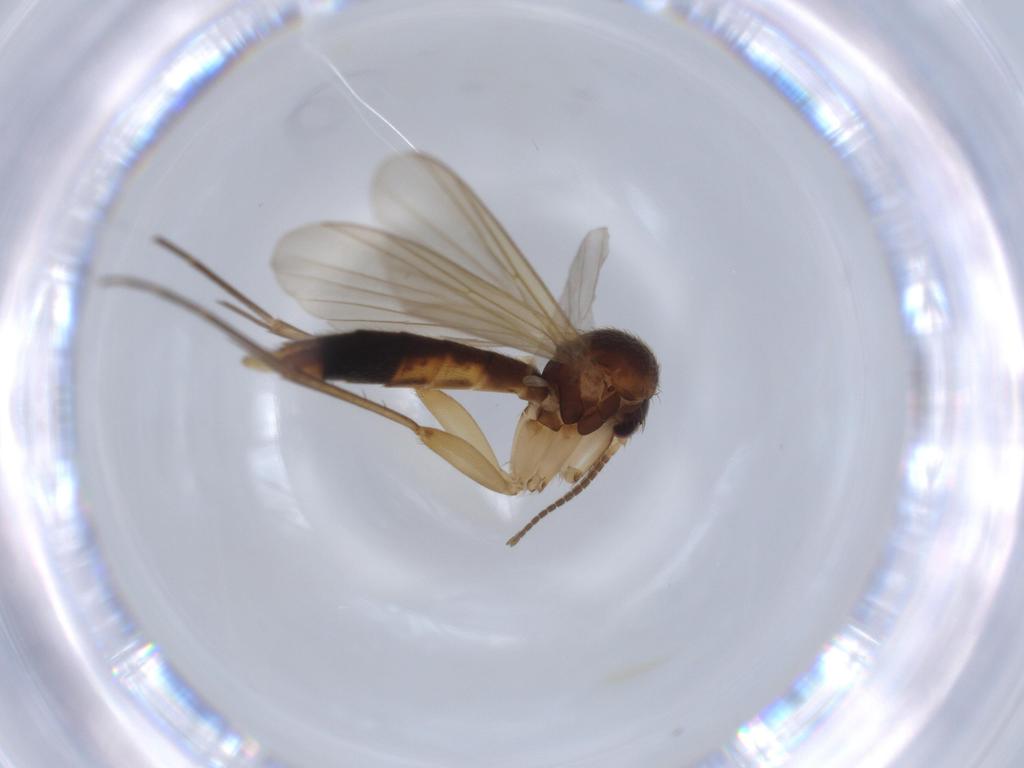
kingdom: Animalia
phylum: Arthropoda
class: Insecta
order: Diptera
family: Mycetophilidae
